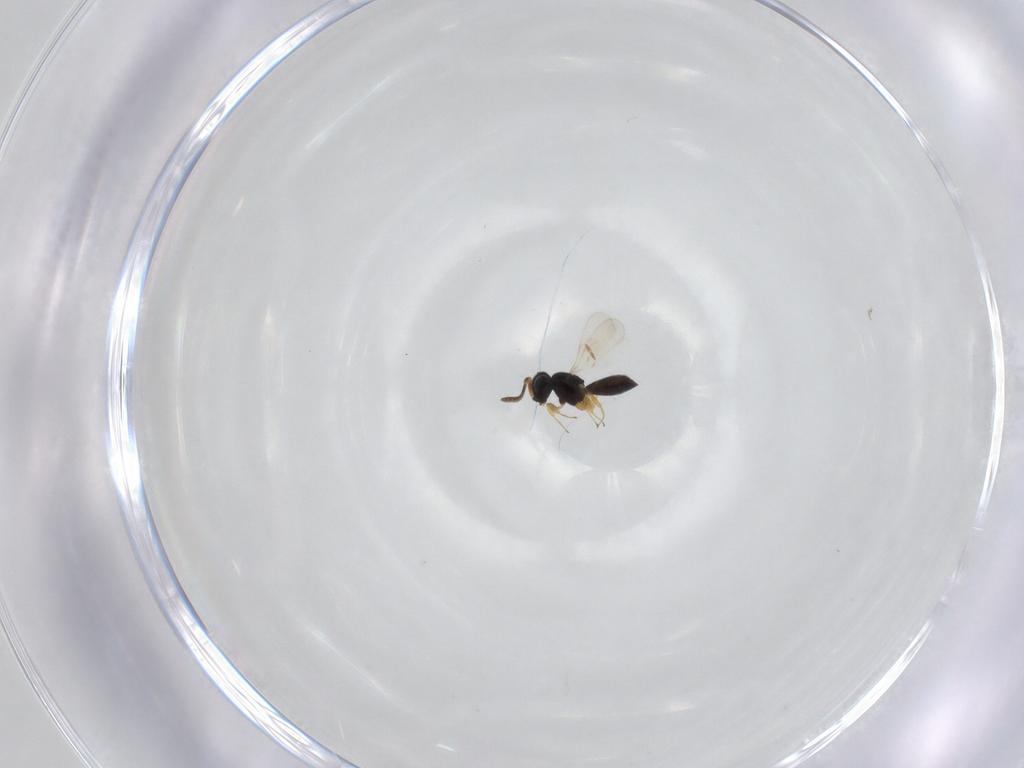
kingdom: Animalia
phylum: Arthropoda
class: Insecta
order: Hymenoptera
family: Scelionidae
